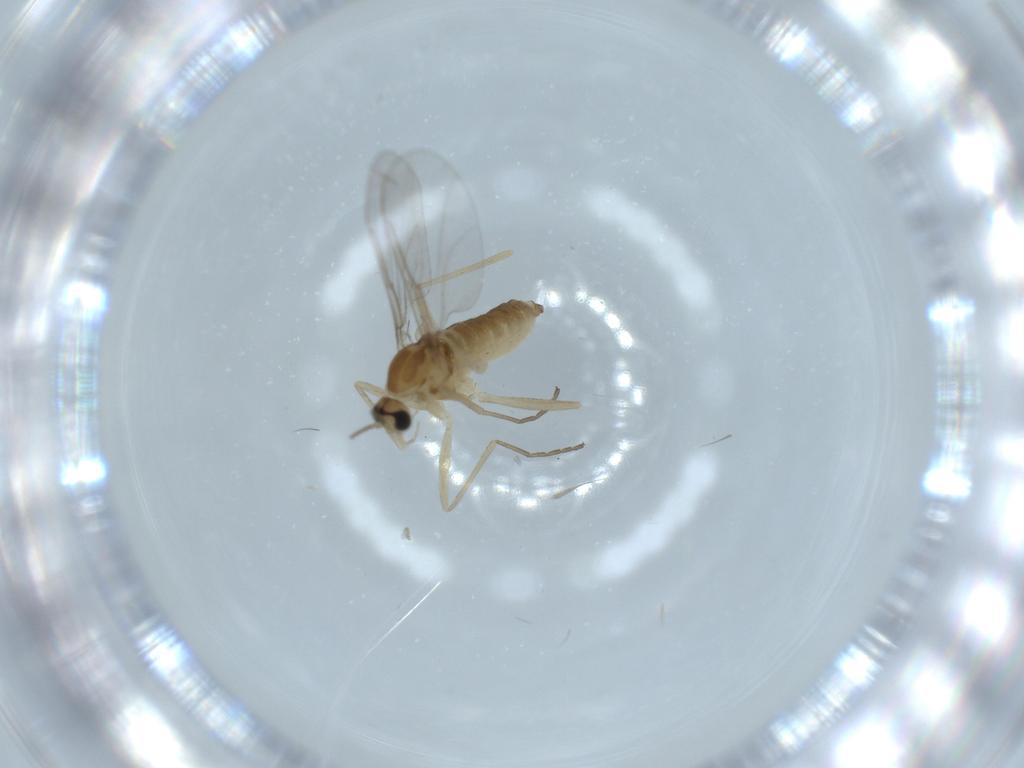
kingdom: Animalia
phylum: Arthropoda
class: Insecta
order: Diptera
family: Cecidomyiidae
